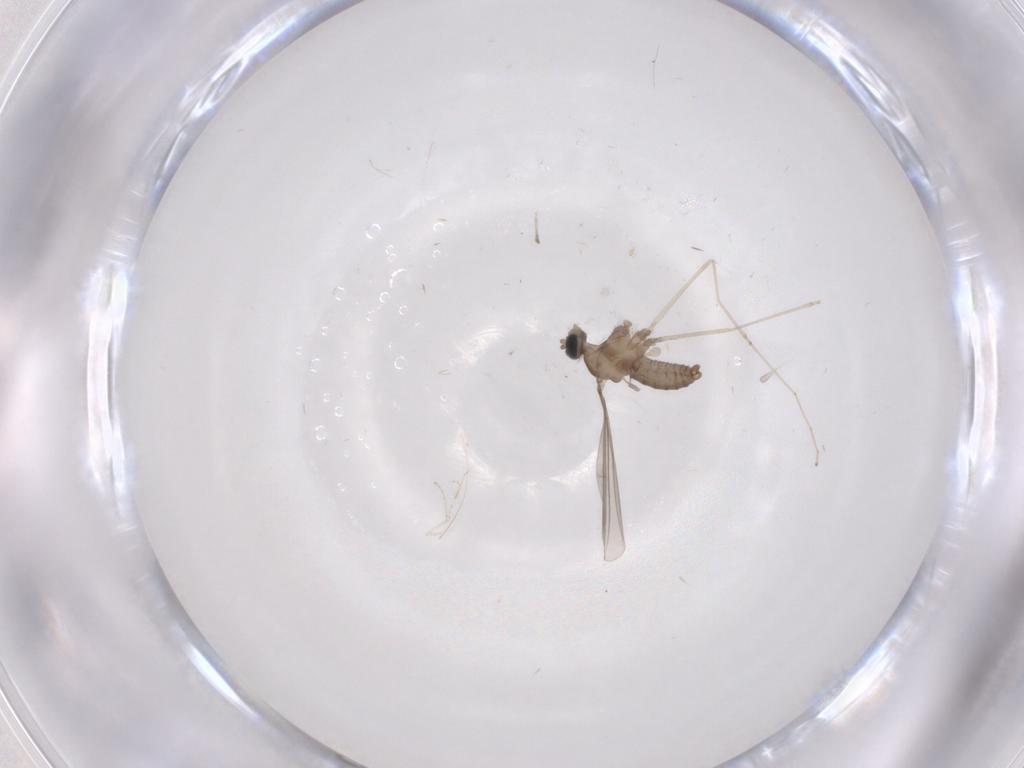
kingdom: Animalia
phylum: Arthropoda
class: Insecta
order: Diptera
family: Cecidomyiidae
